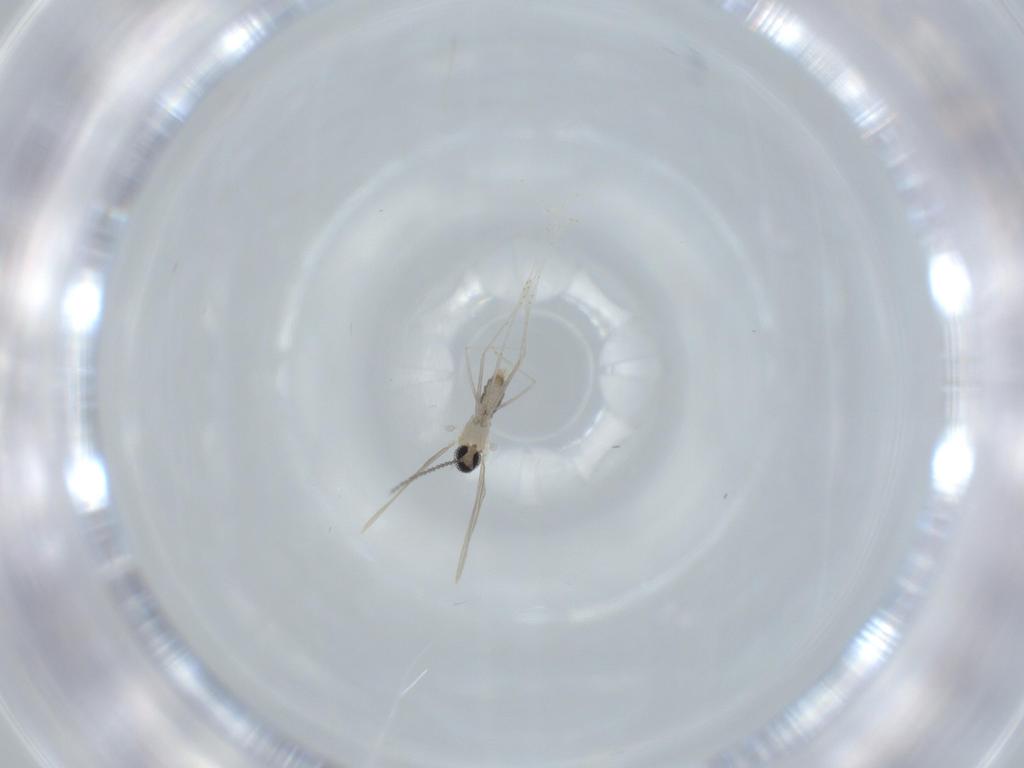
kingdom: Animalia
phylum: Arthropoda
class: Insecta
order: Diptera
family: Cecidomyiidae
